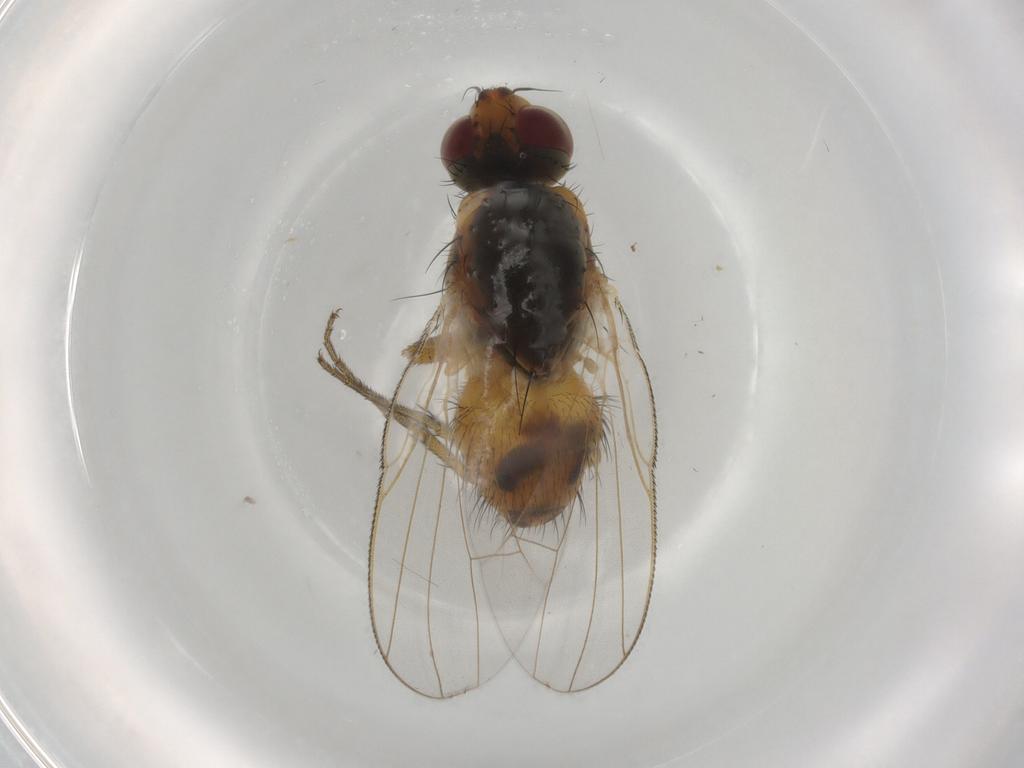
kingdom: Animalia
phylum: Arthropoda
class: Insecta
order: Diptera
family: Muscidae
